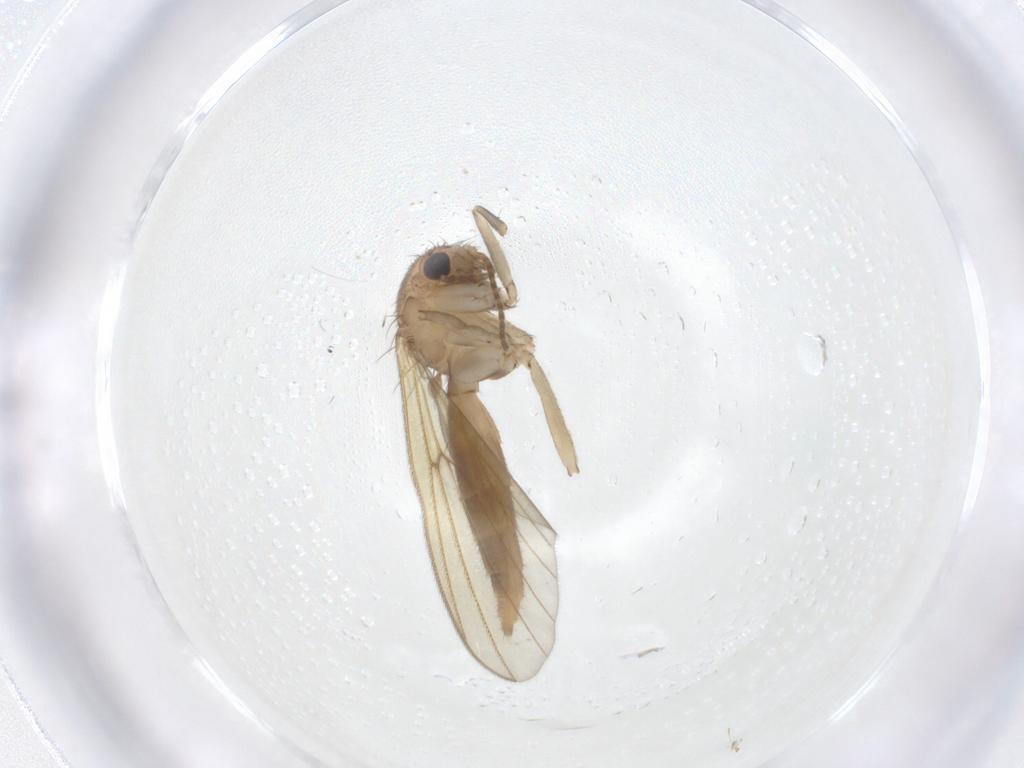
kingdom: Animalia
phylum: Arthropoda
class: Insecta
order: Diptera
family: Mycetophilidae
